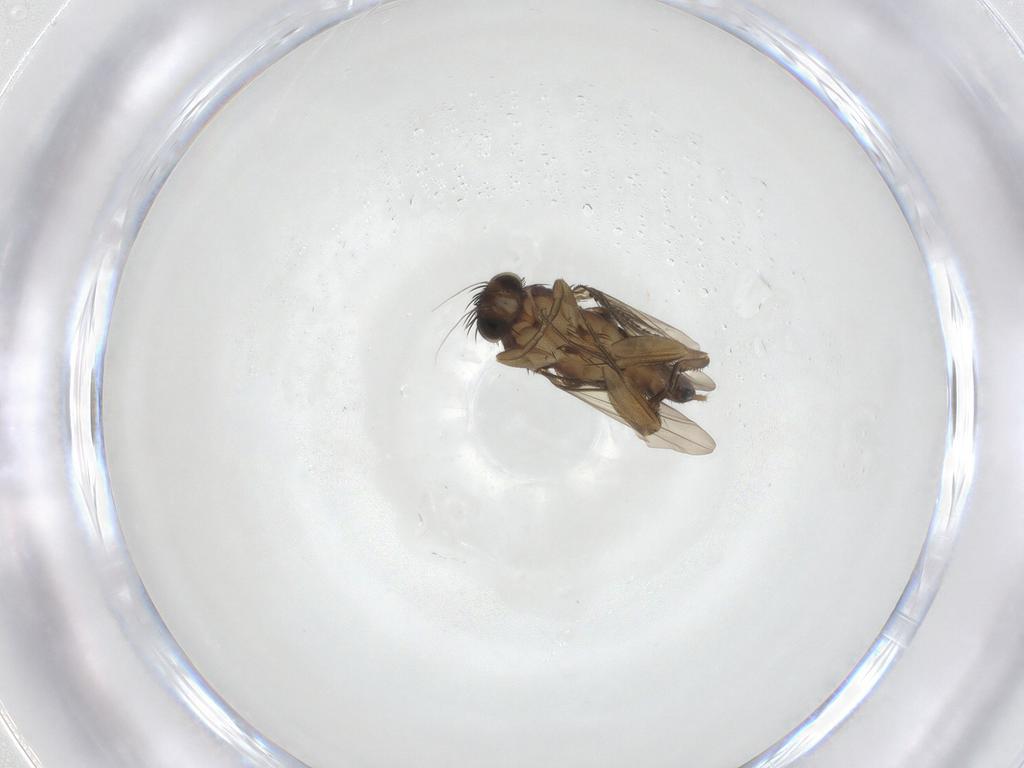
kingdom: Animalia
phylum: Arthropoda
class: Insecta
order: Diptera
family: Phoridae
